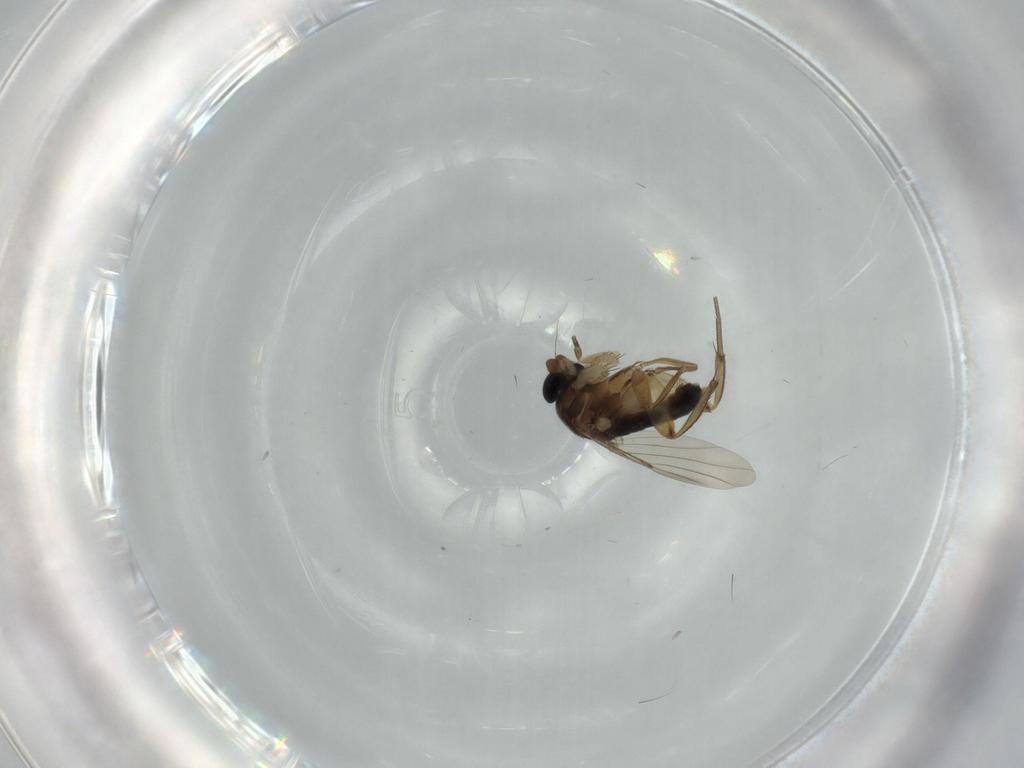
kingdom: Animalia
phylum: Arthropoda
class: Insecta
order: Diptera
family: Phoridae
